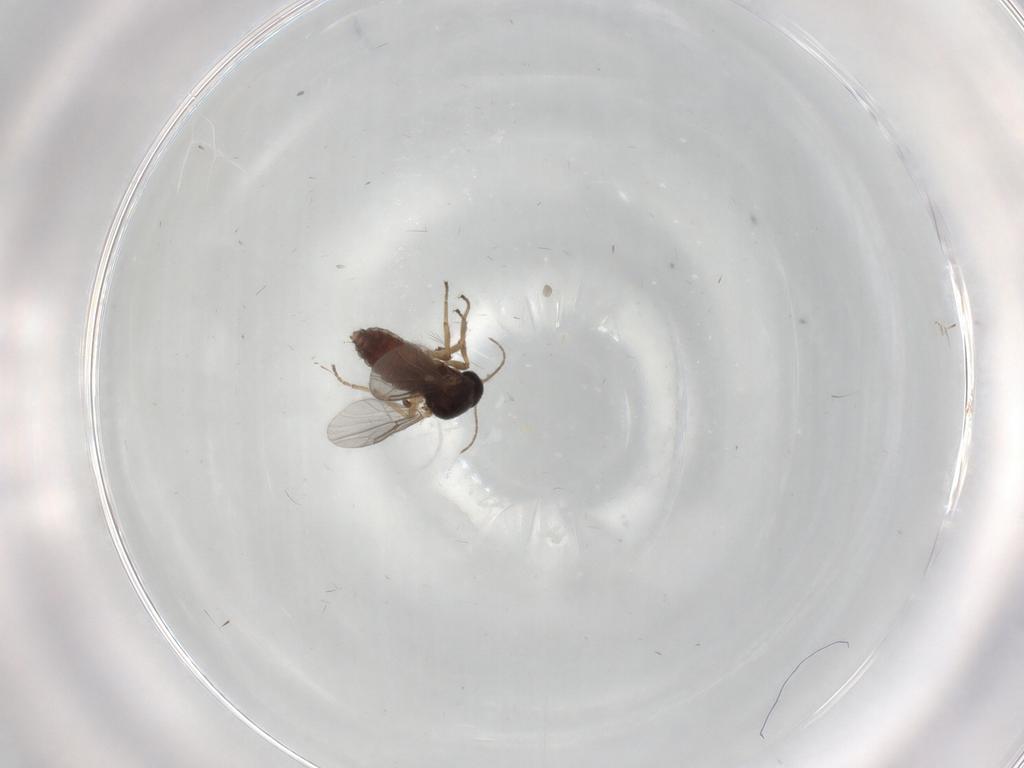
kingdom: Animalia
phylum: Arthropoda
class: Insecta
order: Diptera
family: Ceratopogonidae
